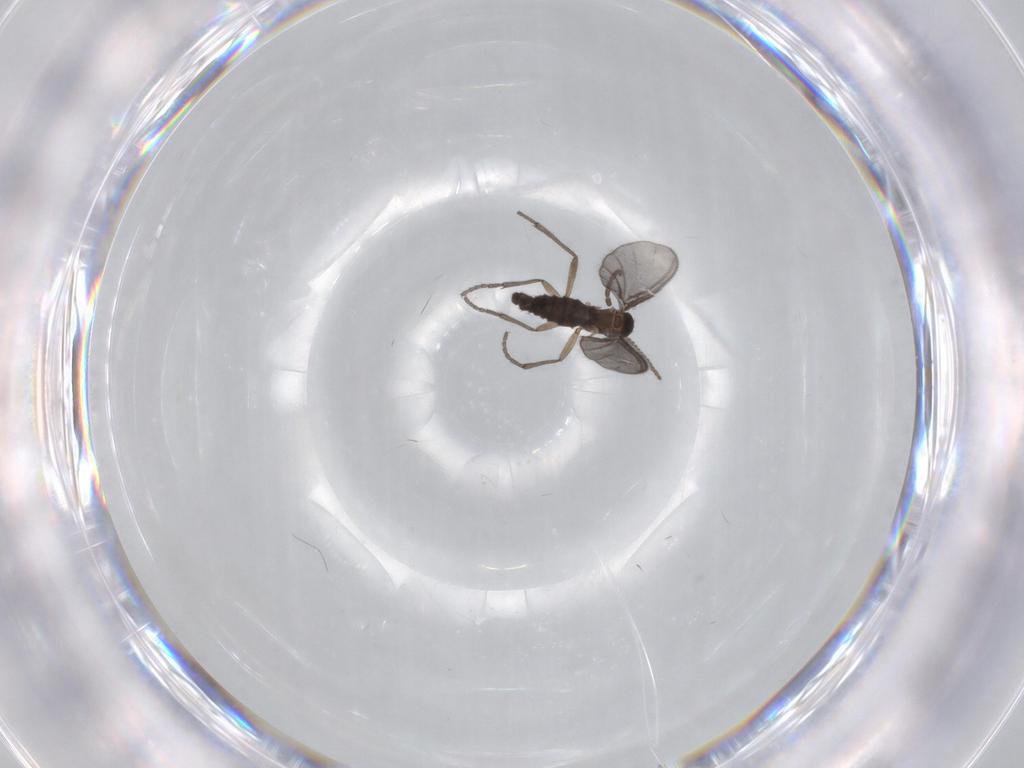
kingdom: Animalia
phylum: Arthropoda
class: Insecta
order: Diptera
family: Sciaridae
